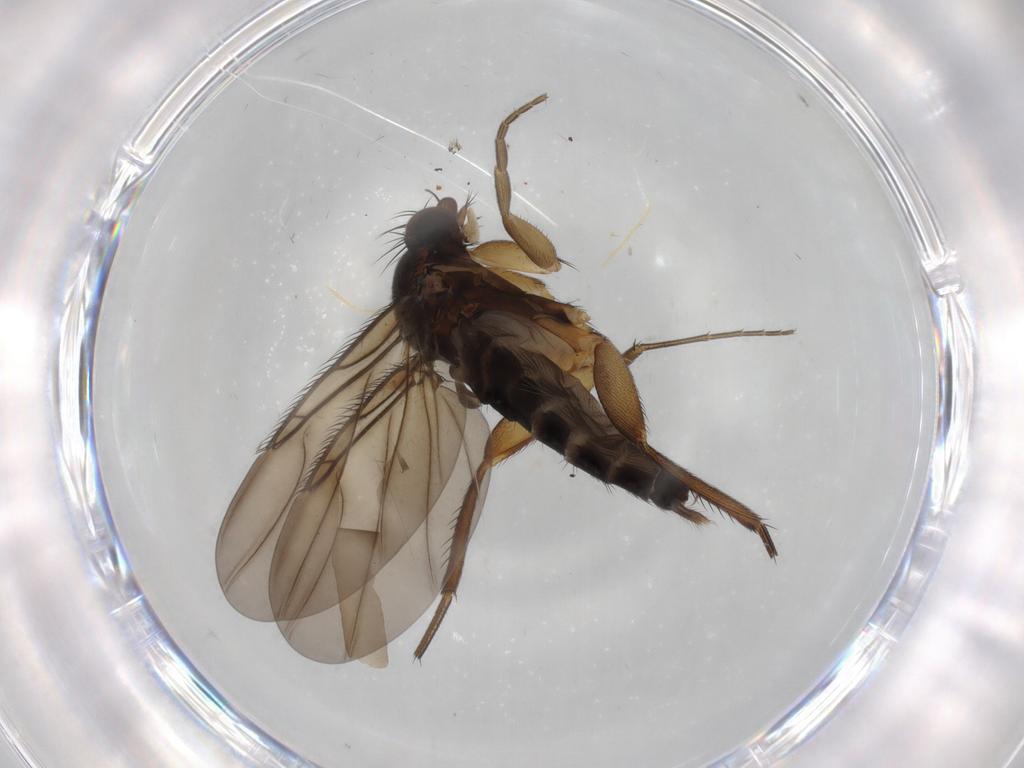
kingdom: Animalia
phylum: Arthropoda
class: Insecta
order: Diptera
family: Phoridae
